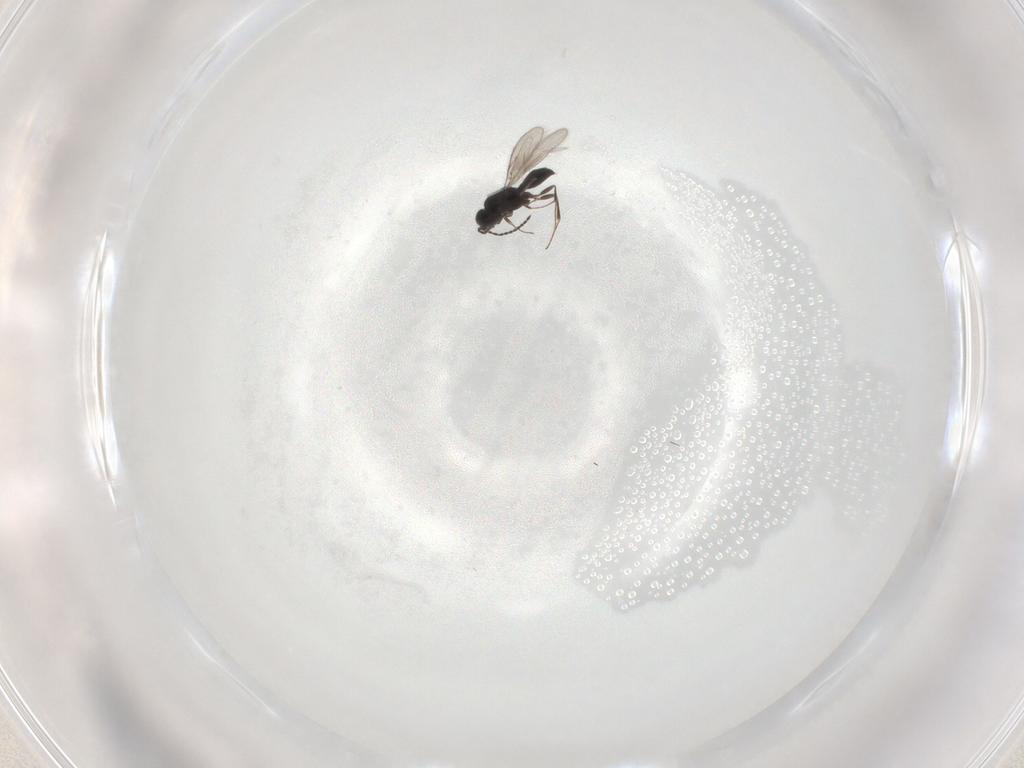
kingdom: Animalia
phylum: Arthropoda
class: Insecta
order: Hymenoptera
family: Scelionidae
